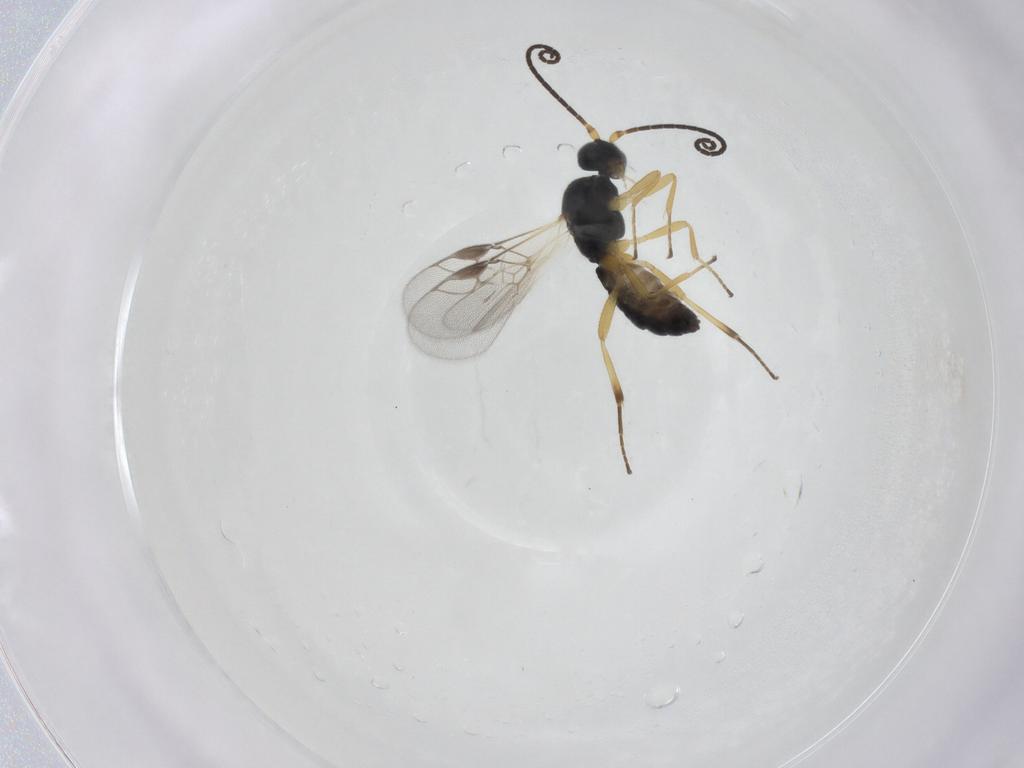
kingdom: Animalia
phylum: Arthropoda
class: Insecta
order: Hymenoptera
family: Braconidae
